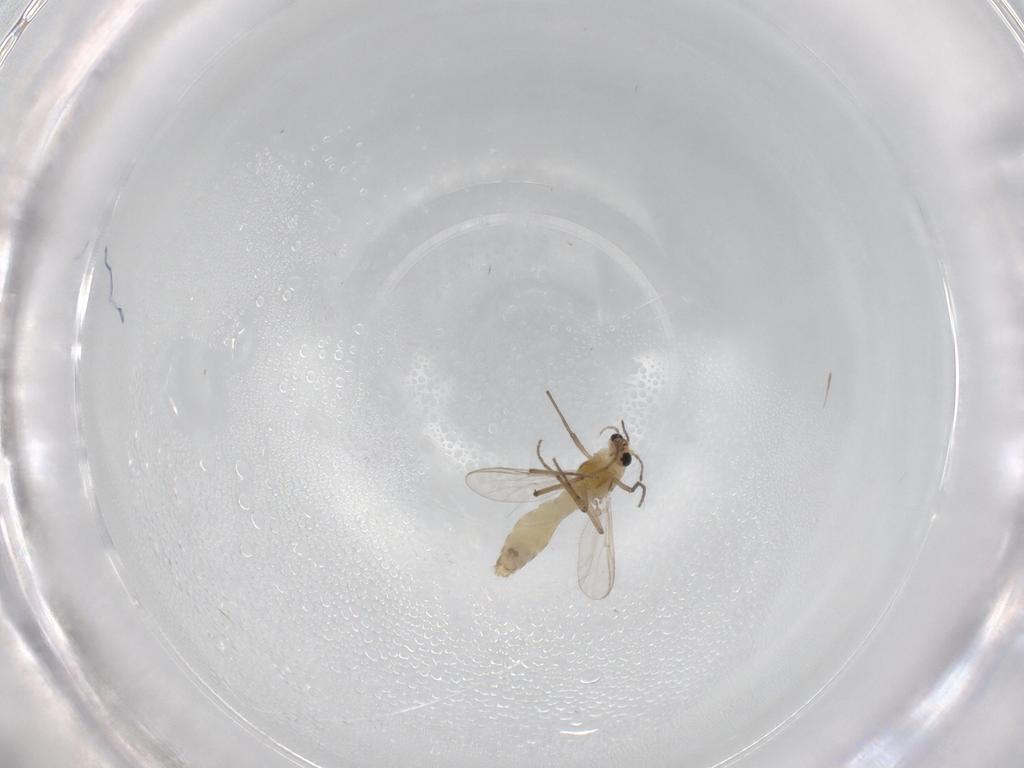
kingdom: Animalia
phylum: Arthropoda
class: Insecta
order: Diptera
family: Chironomidae
